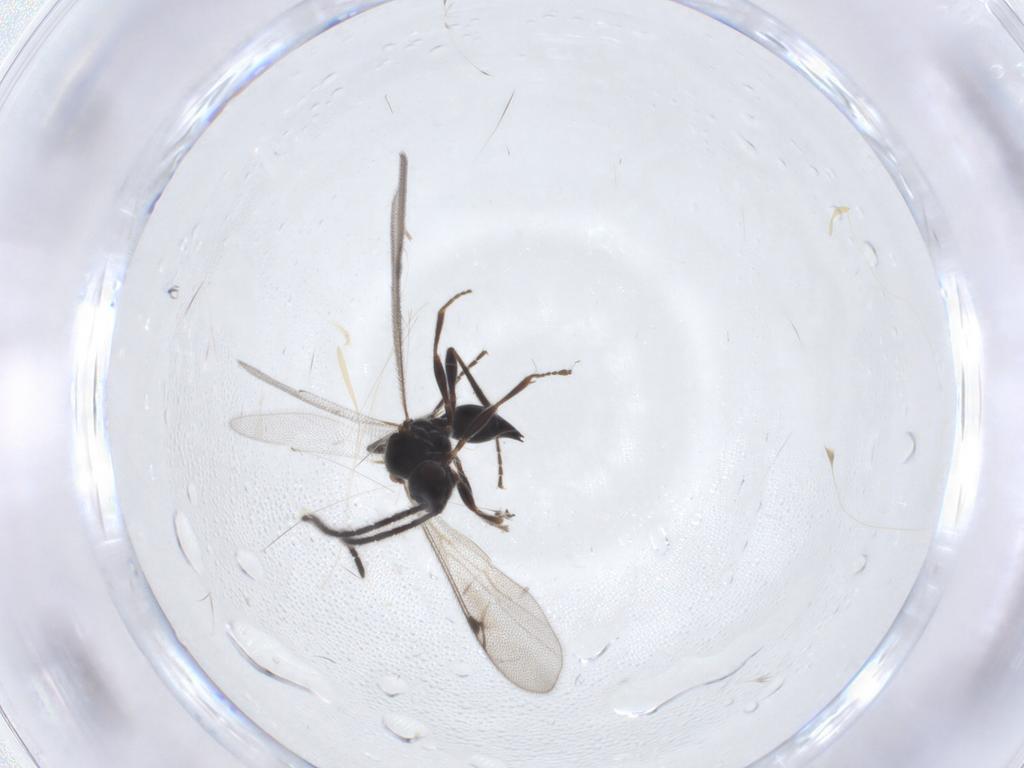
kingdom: Animalia
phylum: Arthropoda
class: Insecta
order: Hymenoptera
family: Proctotrupidae
